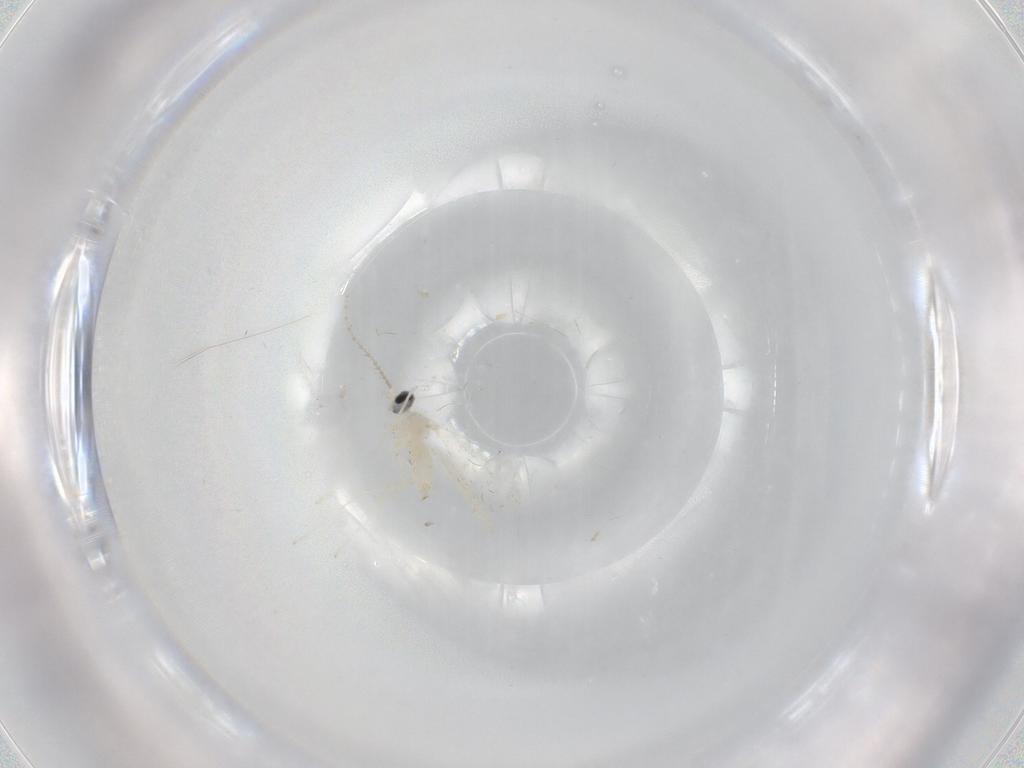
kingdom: Animalia
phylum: Arthropoda
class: Insecta
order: Diptera
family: Cecidomyiidae
